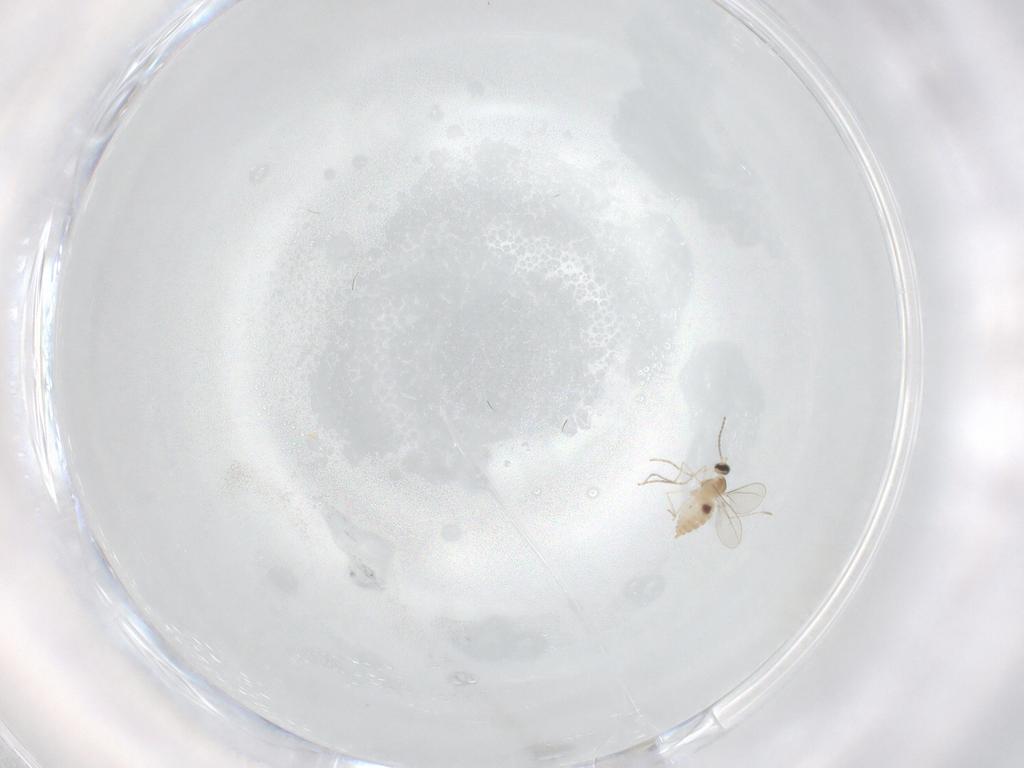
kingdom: Animalia
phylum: Arthropoda
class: Insecta
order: Diptera
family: Cecidomyiidae
